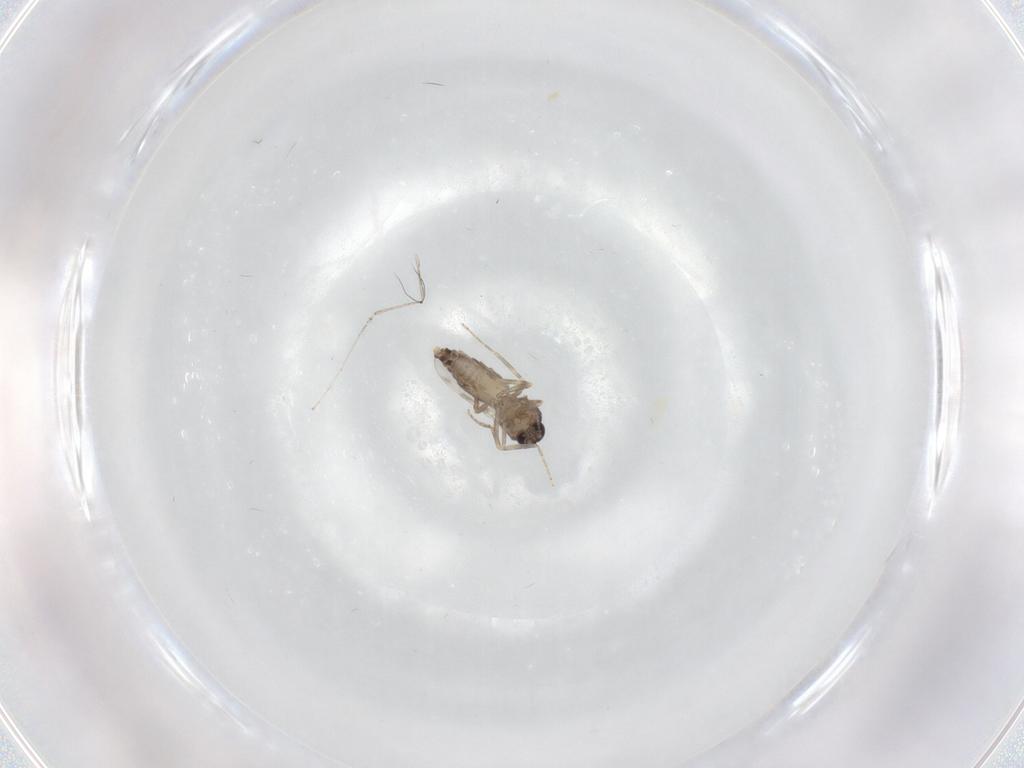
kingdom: Animalia
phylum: Arthropoda
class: Insecta
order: Diptera
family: Ceratopogonidae
